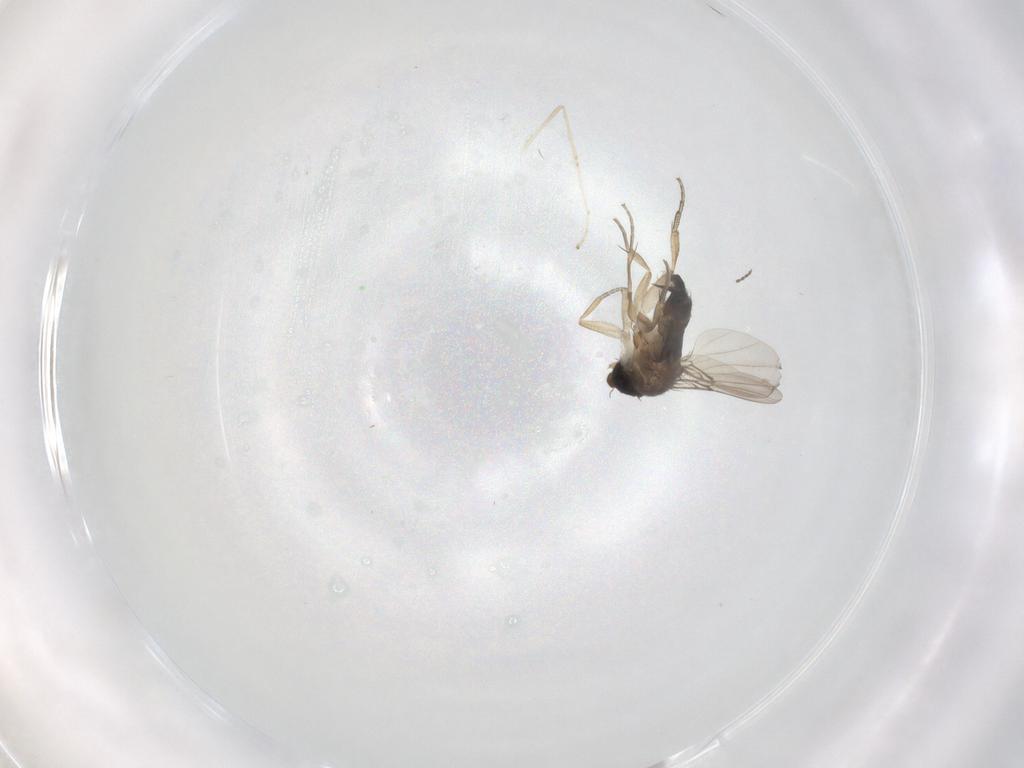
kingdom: Animalia
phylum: Arthropoda
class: Insecta
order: Diptera
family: Phoridae
